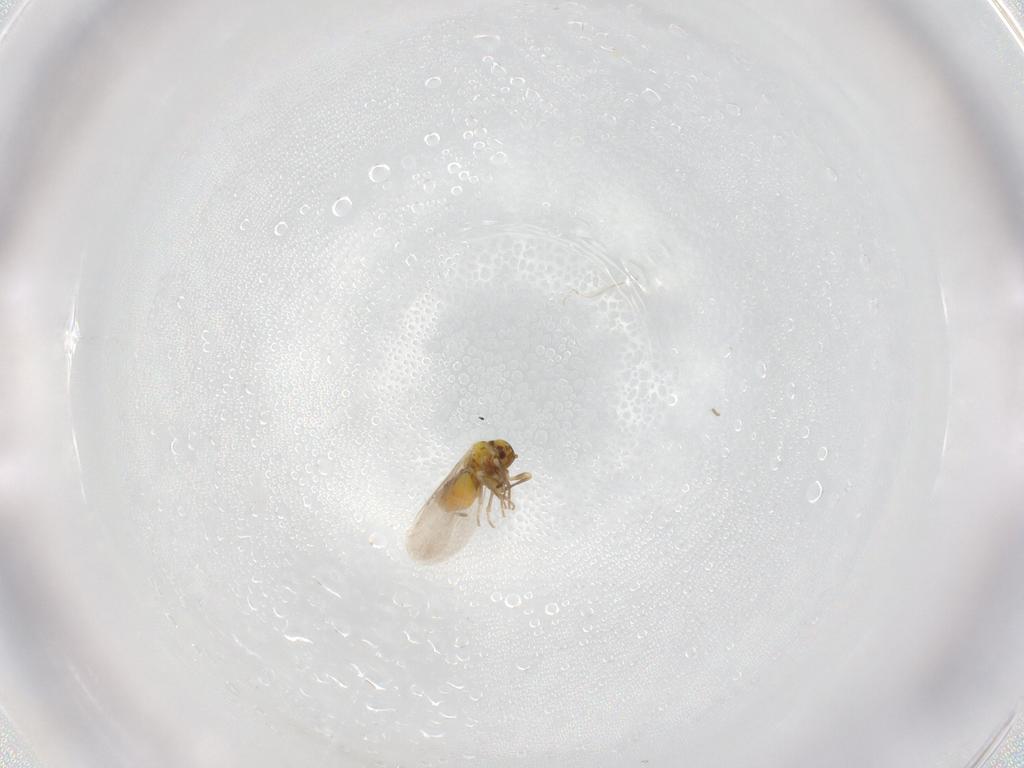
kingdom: Animalia
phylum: Arthropoda
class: Insecta
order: Hemiptera
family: Aleyrodidae
